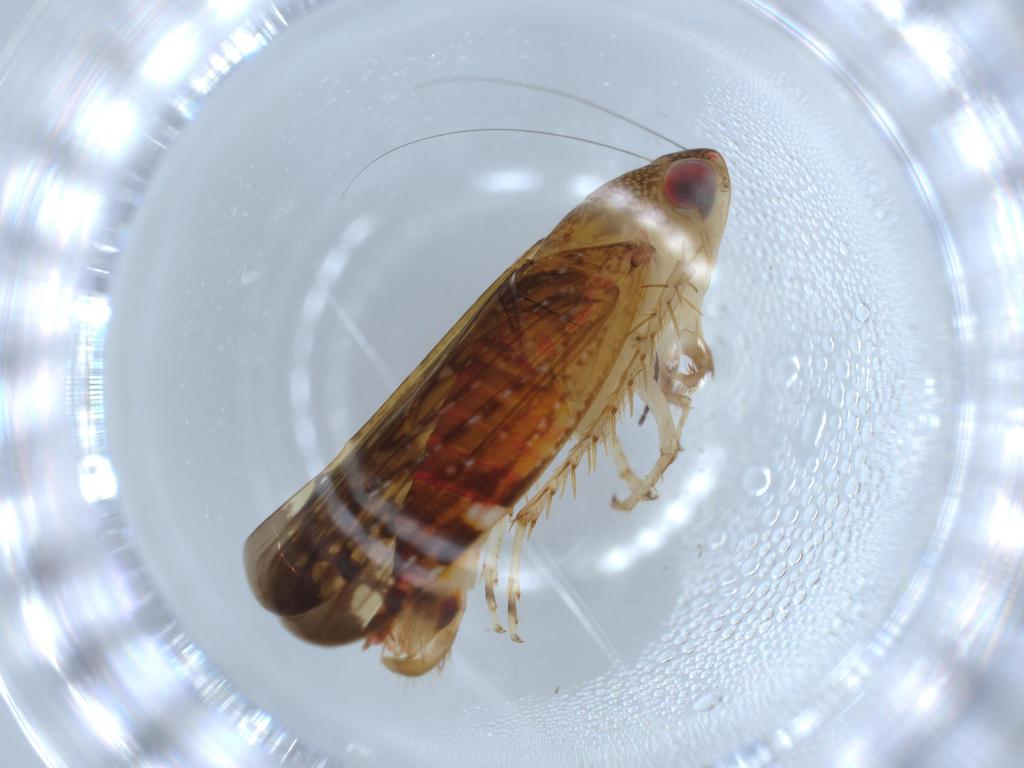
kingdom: Animalia
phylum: Arthropoda
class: Insecta
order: Hemiptera
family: Cicadellidae
